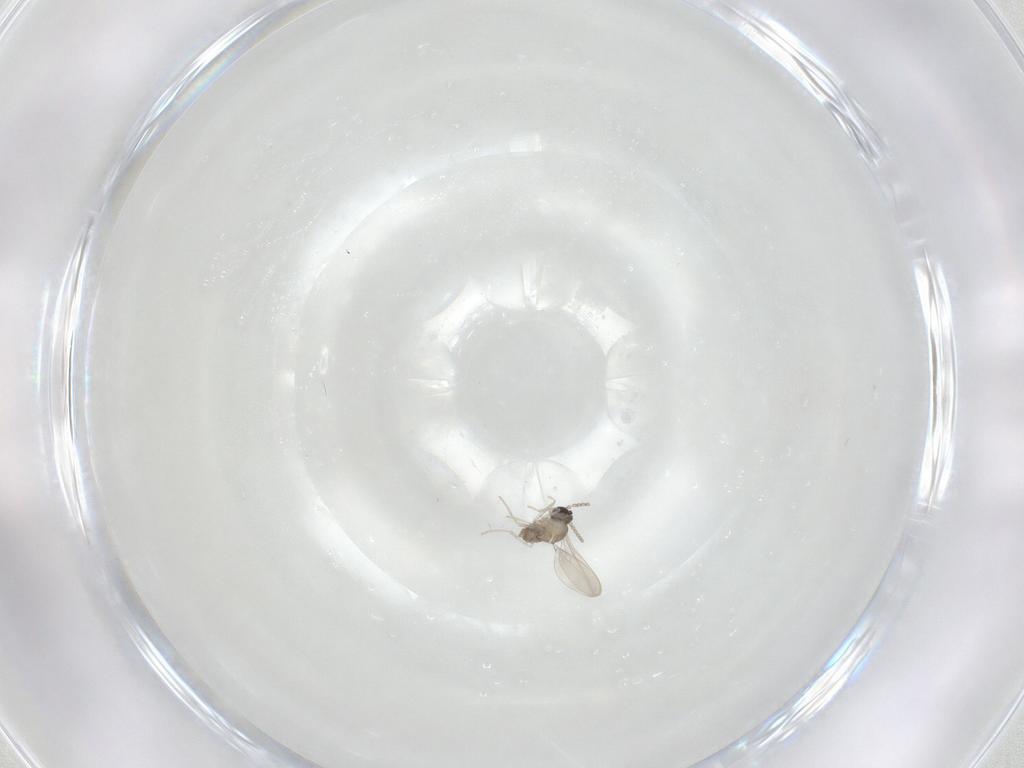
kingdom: Animalia
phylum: Arthropoda
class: Insecta
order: Diptera
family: Cecidomyiidae
